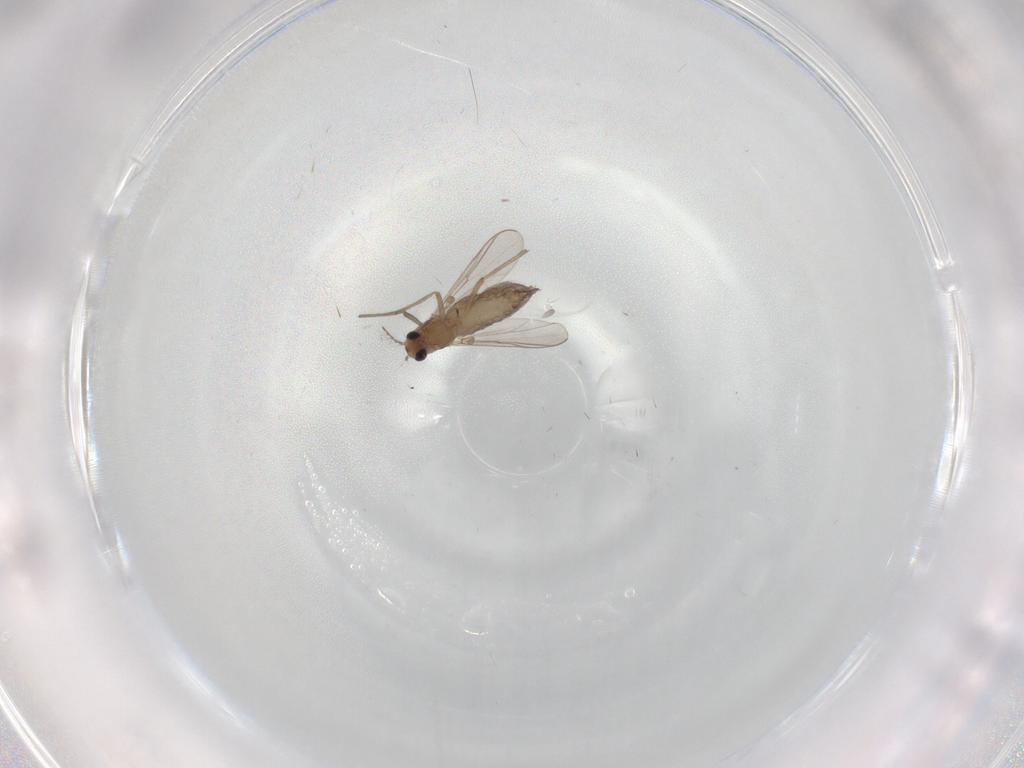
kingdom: Animalia
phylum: Arthropoda
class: Insecta
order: Diptera
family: Chironomidae
